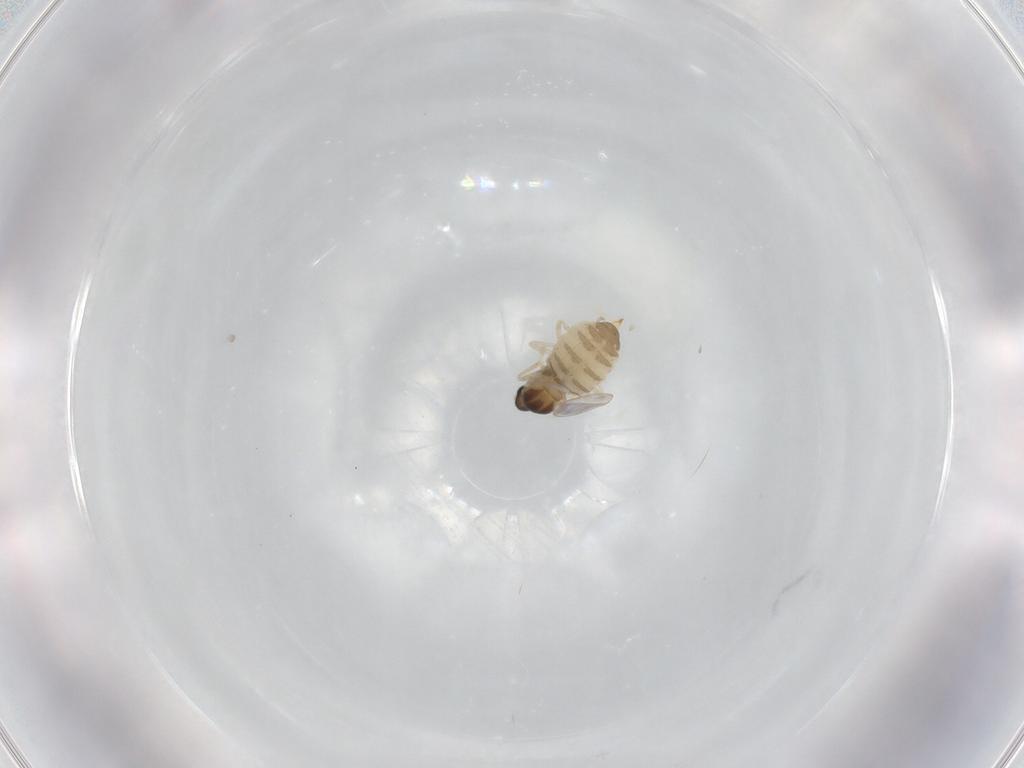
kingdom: Animalia
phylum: Arthropoda
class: Insecta
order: Diptera
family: Cecidomyiidae
